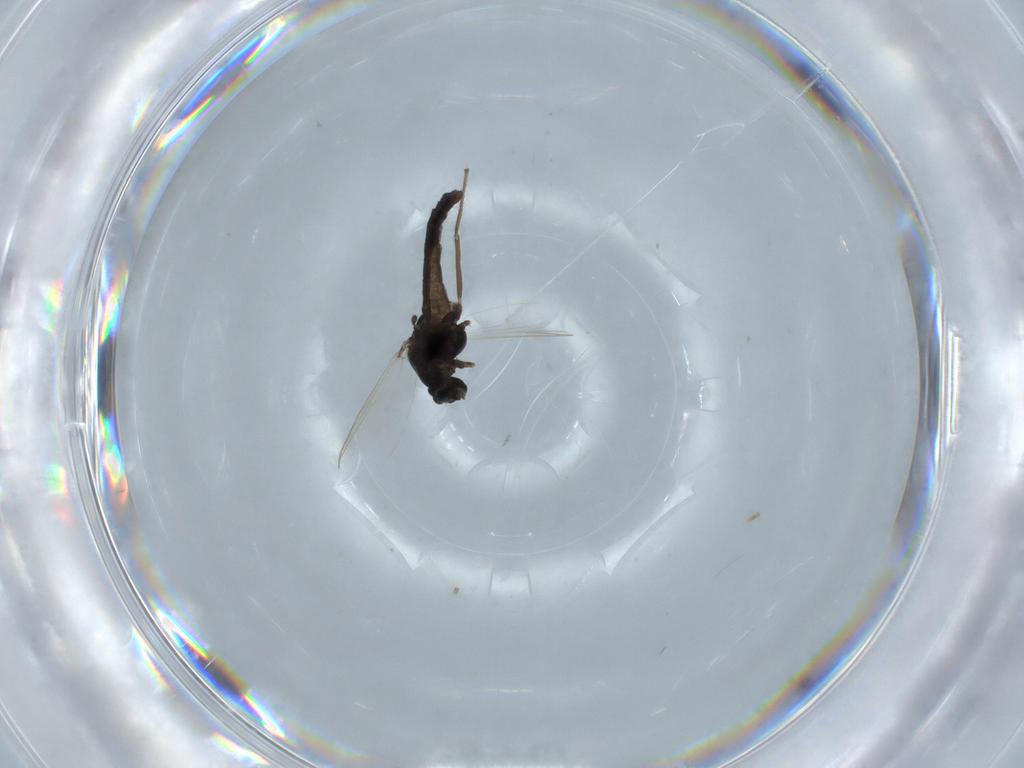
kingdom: Animalia
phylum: Arthropoda
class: Insecta
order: Diptera
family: Chironomidae
